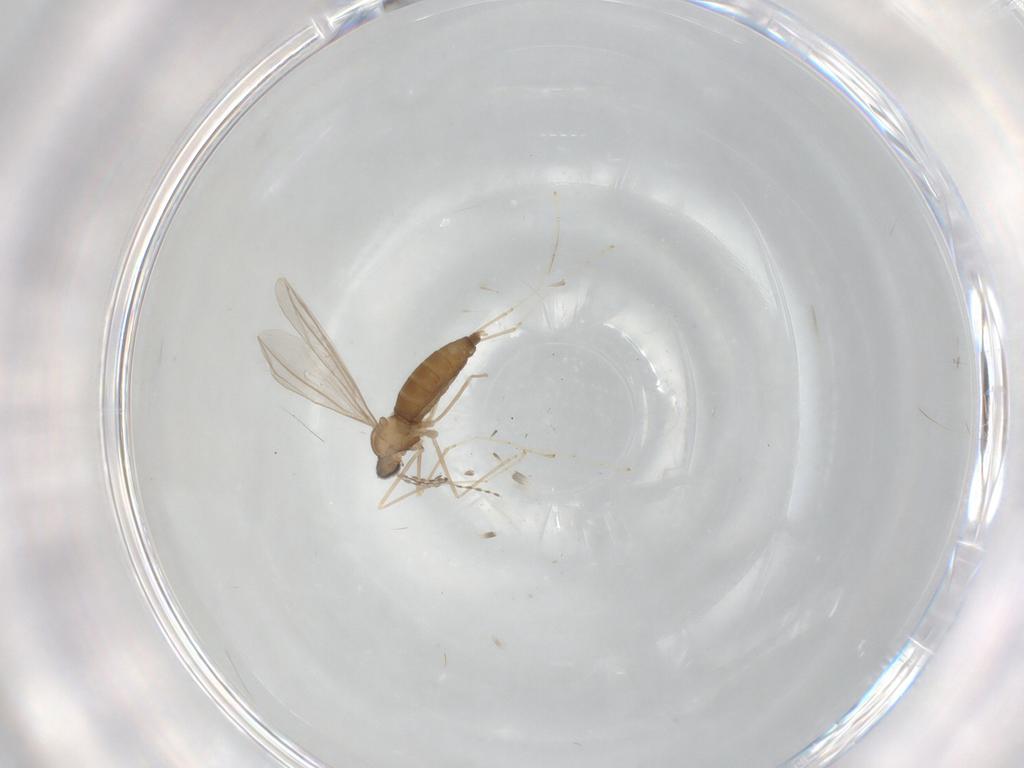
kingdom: Animalia
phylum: Arthropoda
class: Insecta
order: Diptera
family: Cecidomyiidae
